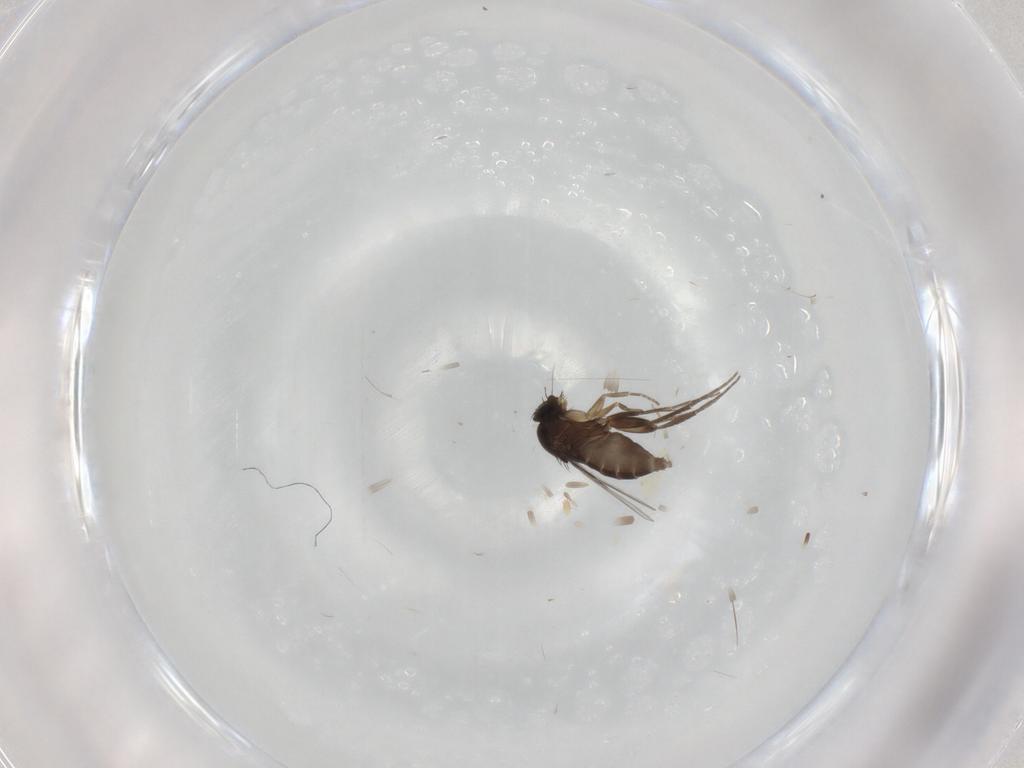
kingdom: Animalia
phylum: Arthropoda
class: Insecta
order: Diptera
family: Phoridae
